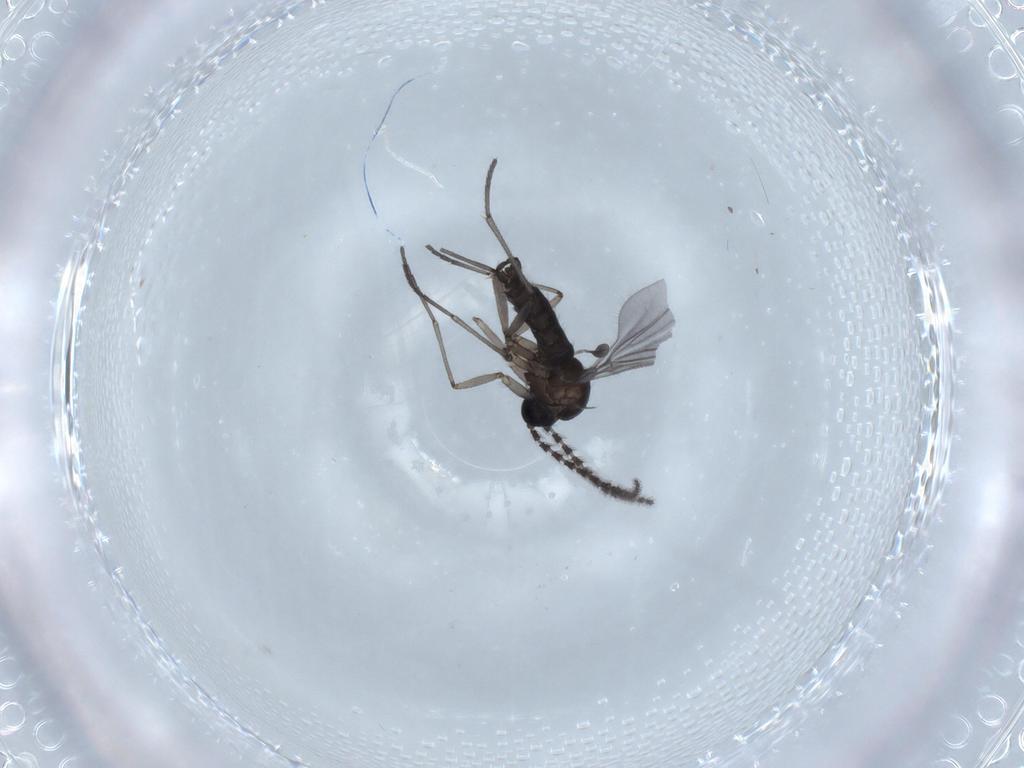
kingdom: Animalia
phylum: Arthropoda
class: Insecta
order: Diptera
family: Sciaridae
